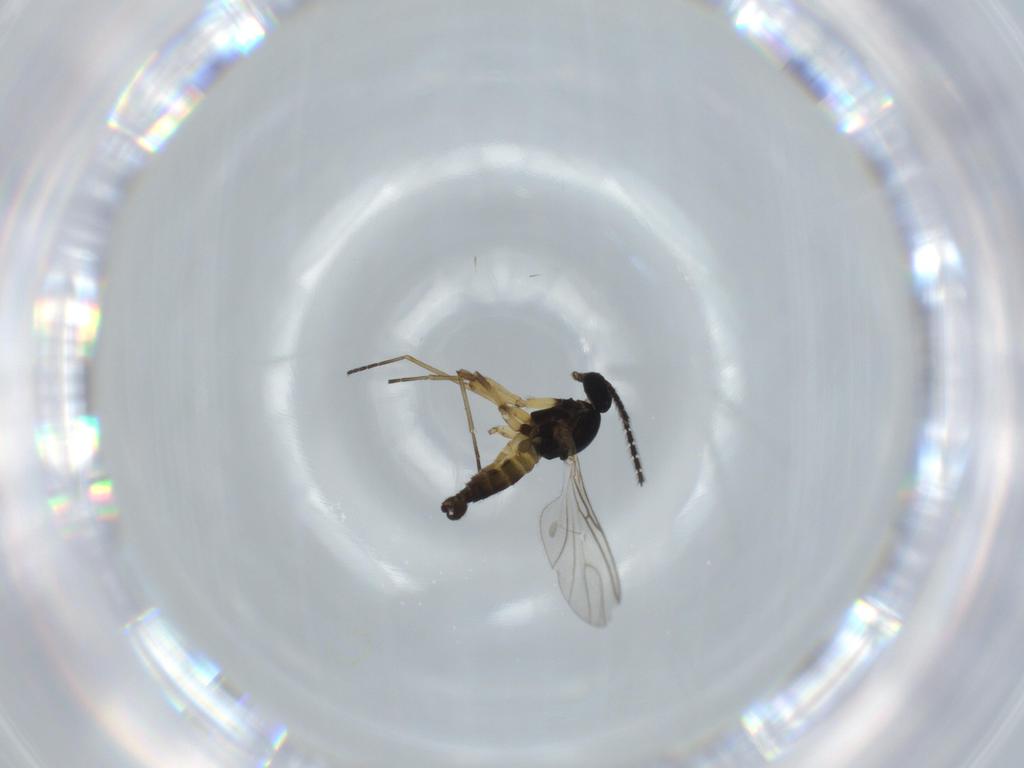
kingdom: Animalia
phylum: Arthropoda
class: Insecta
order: Diptera
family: Sciaridae
